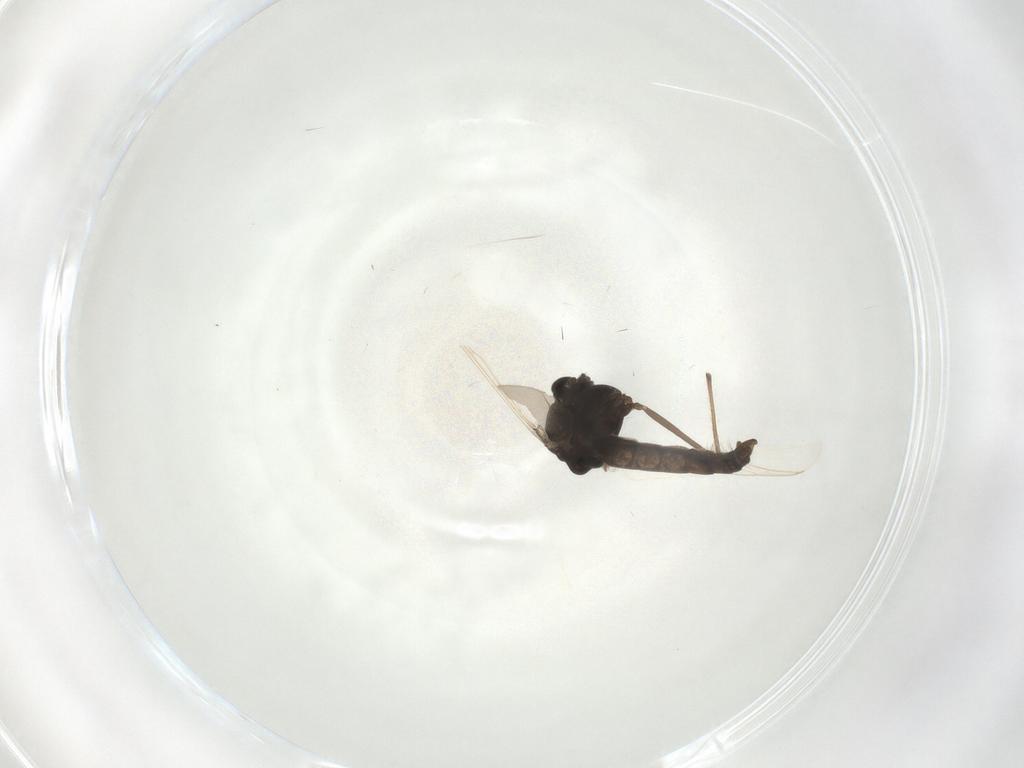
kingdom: Animalia
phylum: Arthropoda
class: Insecta
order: Diptera
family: Chironomidae
